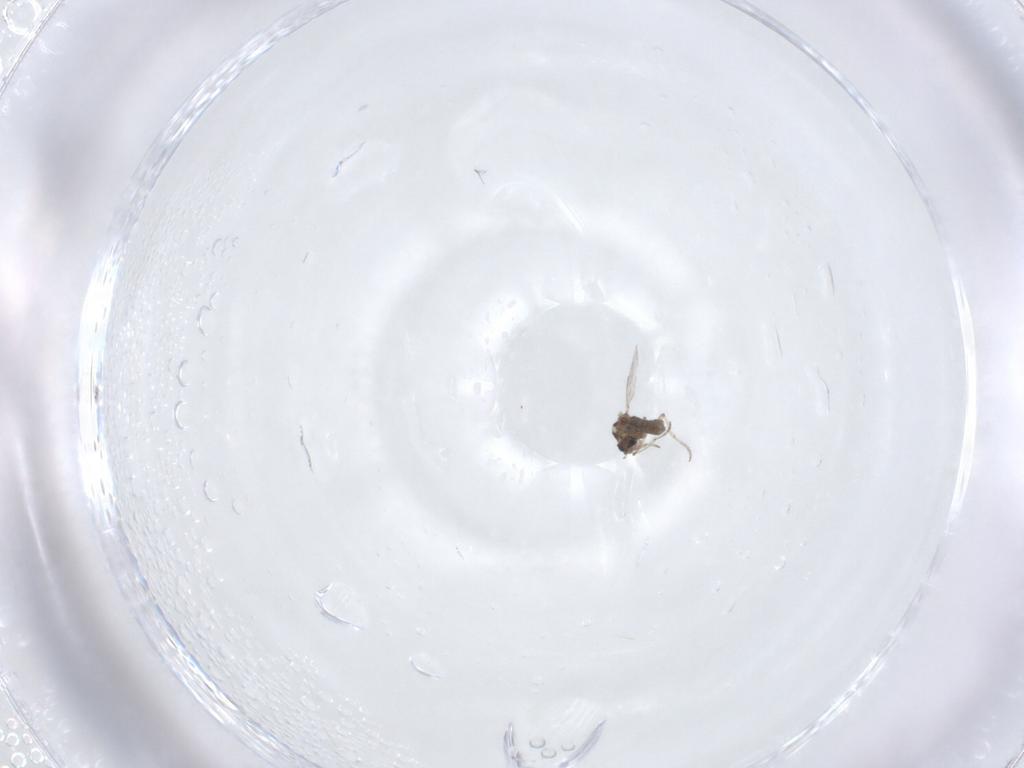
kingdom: Animalia
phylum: Arthropoda
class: Insecta
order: Diptera
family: Ceratopogonidae
